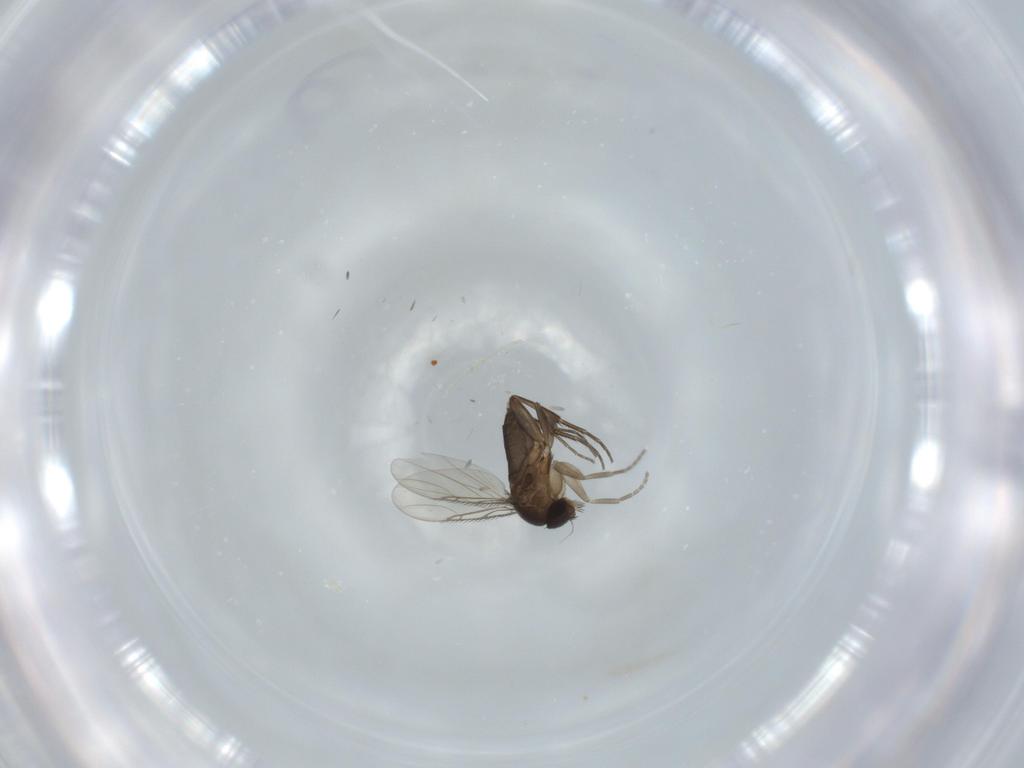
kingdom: Animalia
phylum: Arthropoda
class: Insecta
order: Diptera
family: Phoridae
